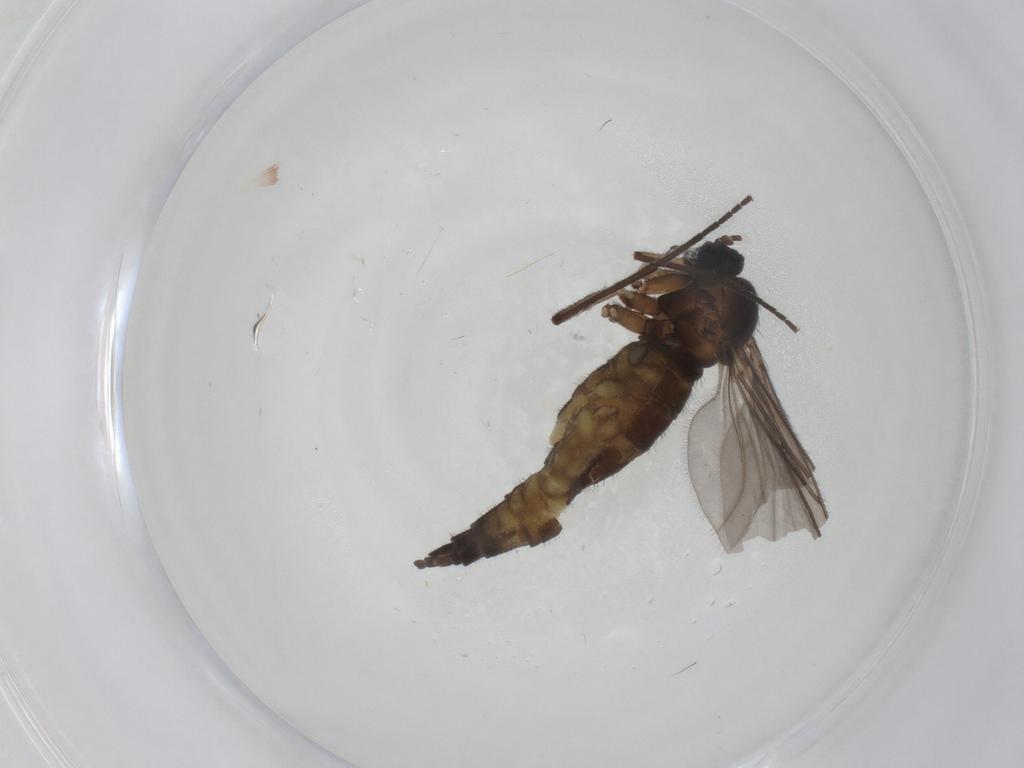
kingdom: Animalia
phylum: Arthropoda
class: Insecta
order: Diptera
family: Sciaridae
